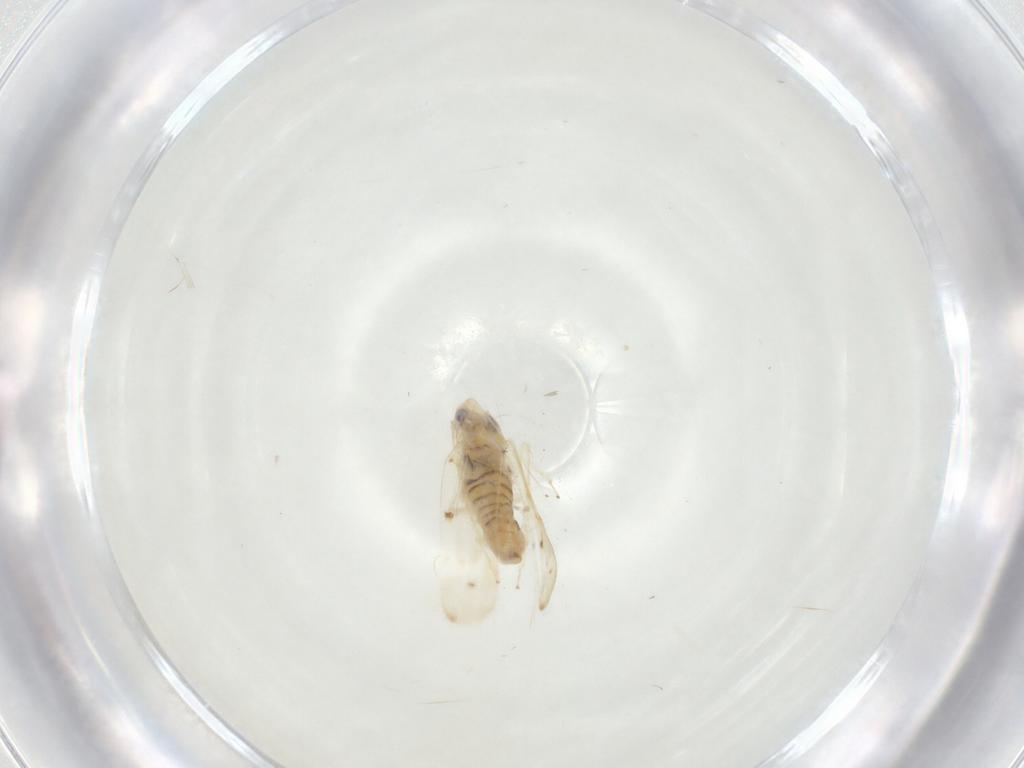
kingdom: Animalia
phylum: Arthropoda
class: Insecta
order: Hemiptera
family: Aleyrodidae
